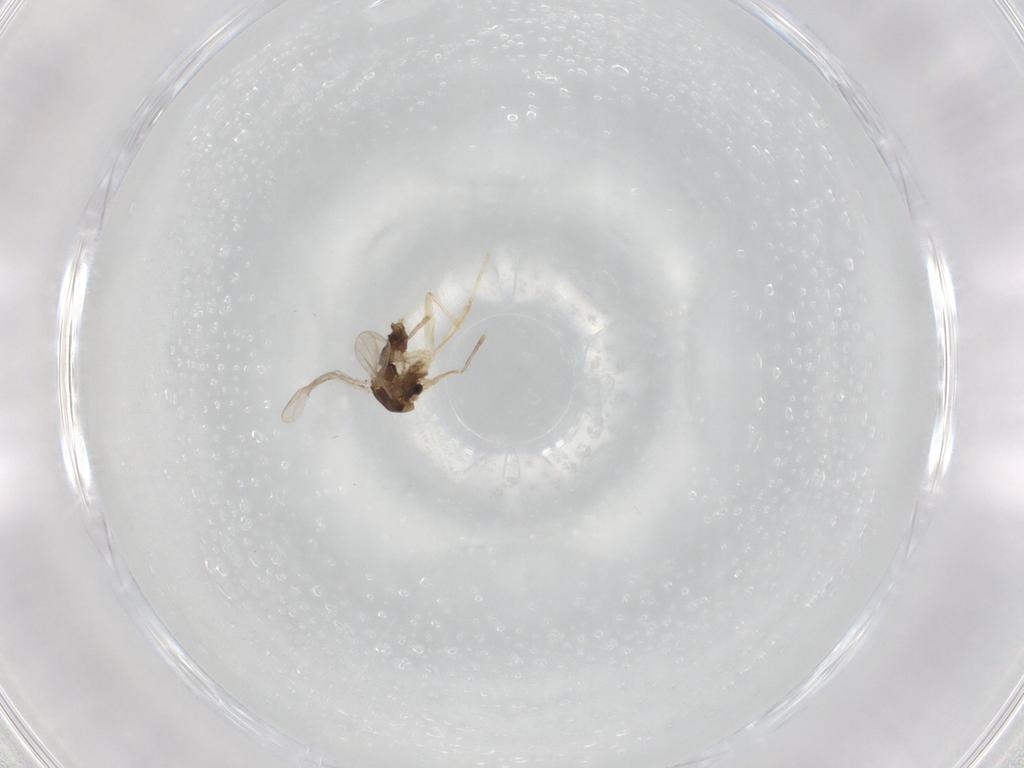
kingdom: Animalia
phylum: Arthropoda
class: Insecta
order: Diptera
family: Chironomidae
